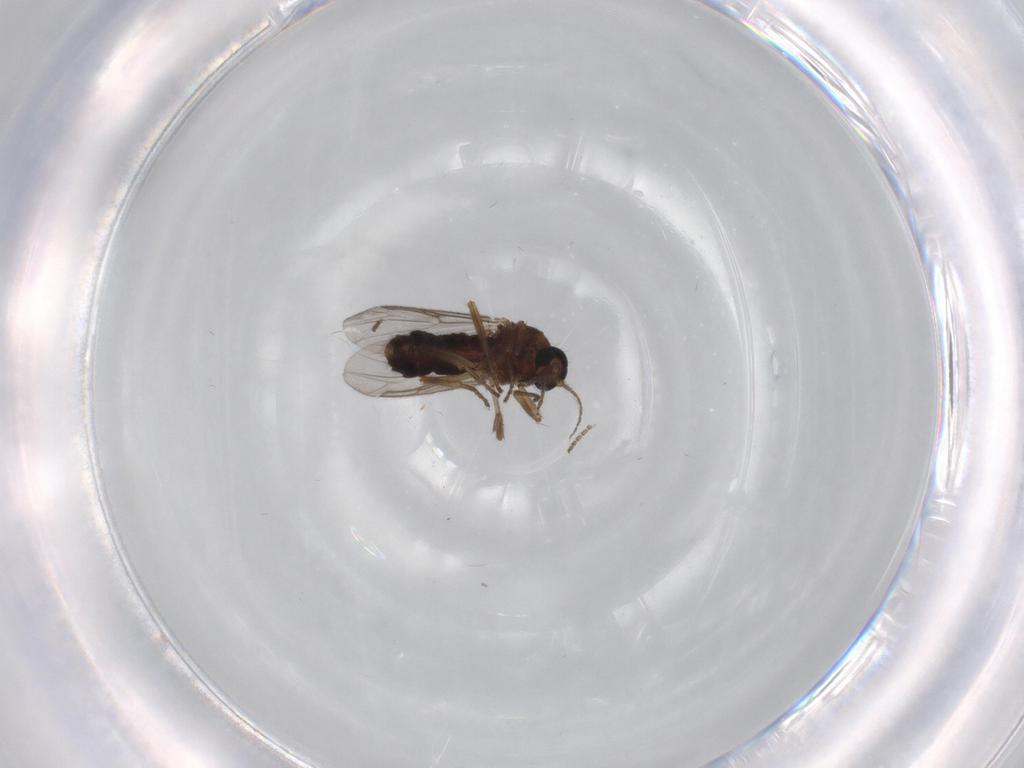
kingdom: Animalia
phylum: Arthropoda
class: Insecta
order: Diptera
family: Ceratopogonidae
